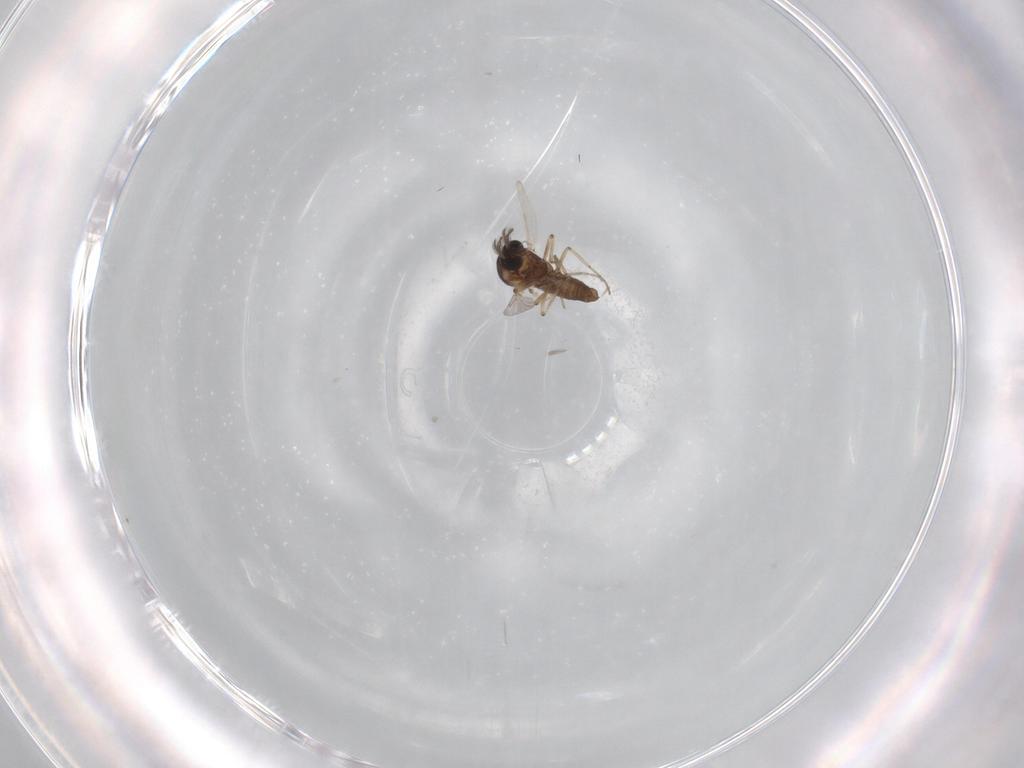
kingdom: Animalia
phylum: Arthropoda
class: Insecta
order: Diptera
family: Ceratopogonidae
